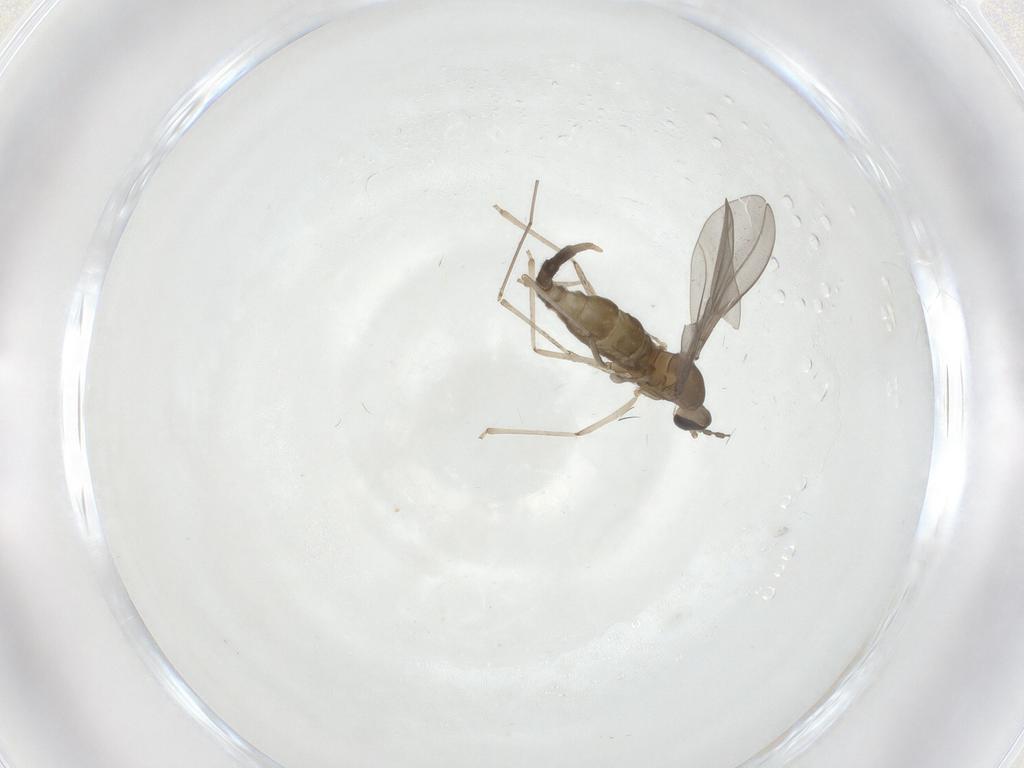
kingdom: Animalia
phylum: Arthropoda
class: Insecta
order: Diptera
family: Cecidomyiidae
